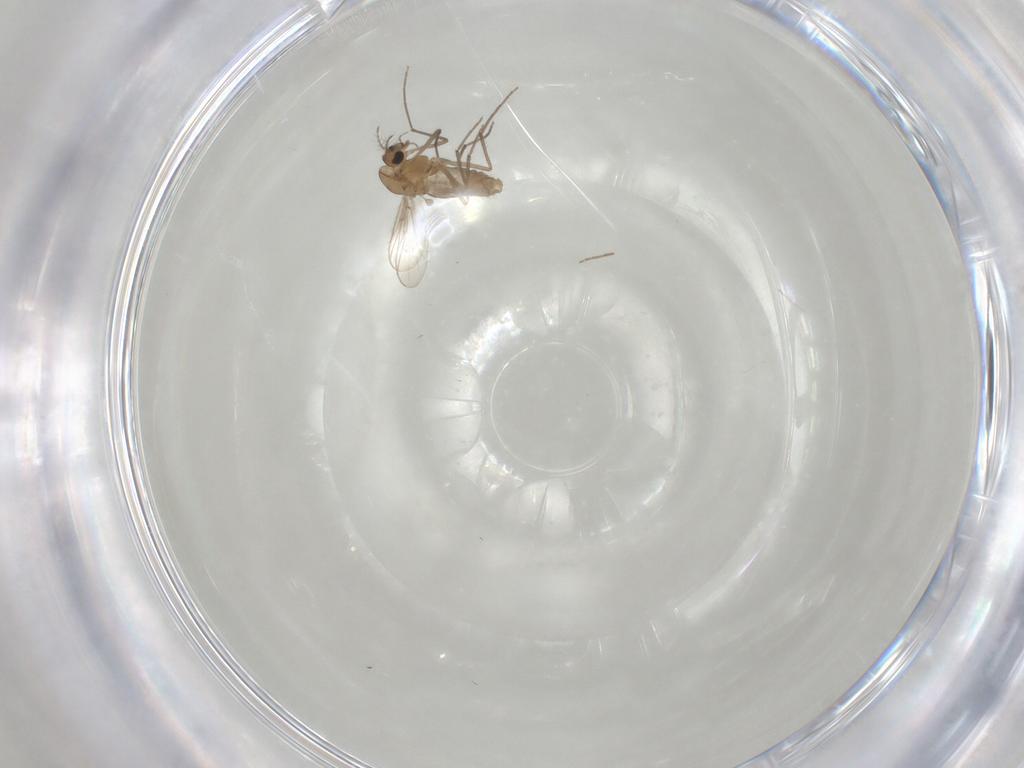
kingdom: Animalia
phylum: Arthropoda
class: Insecta
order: Diptera
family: Chironomidae
